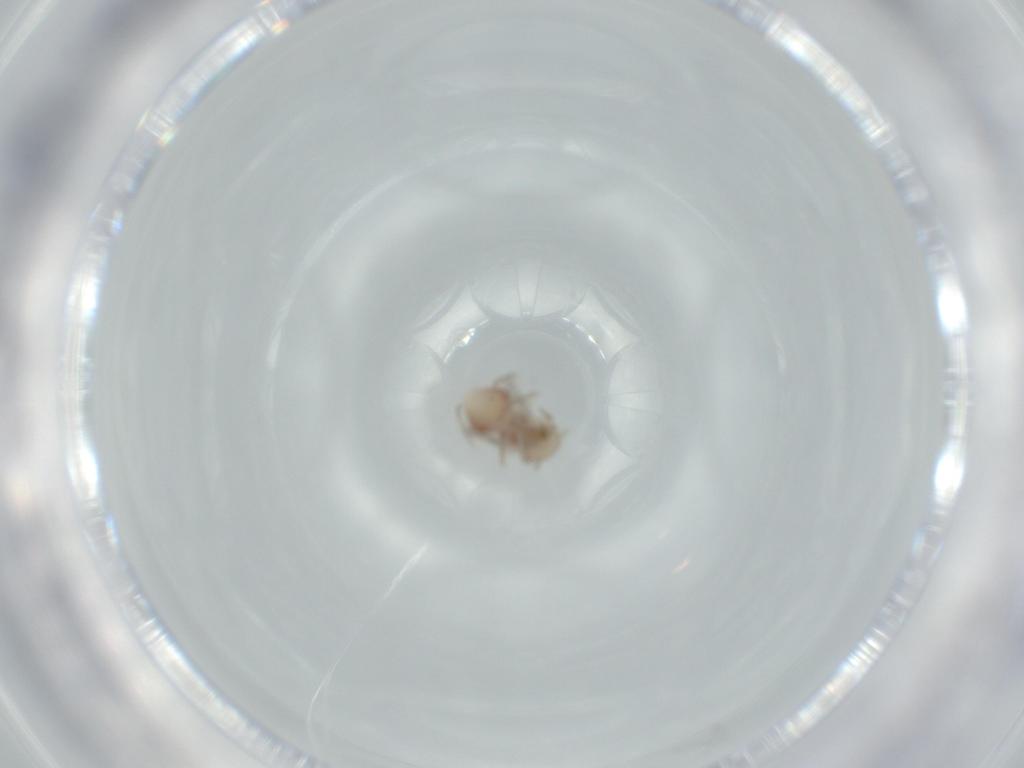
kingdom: Animalia
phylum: Arthropoda
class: Insecta
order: Psocodea
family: Ectopsocidae
